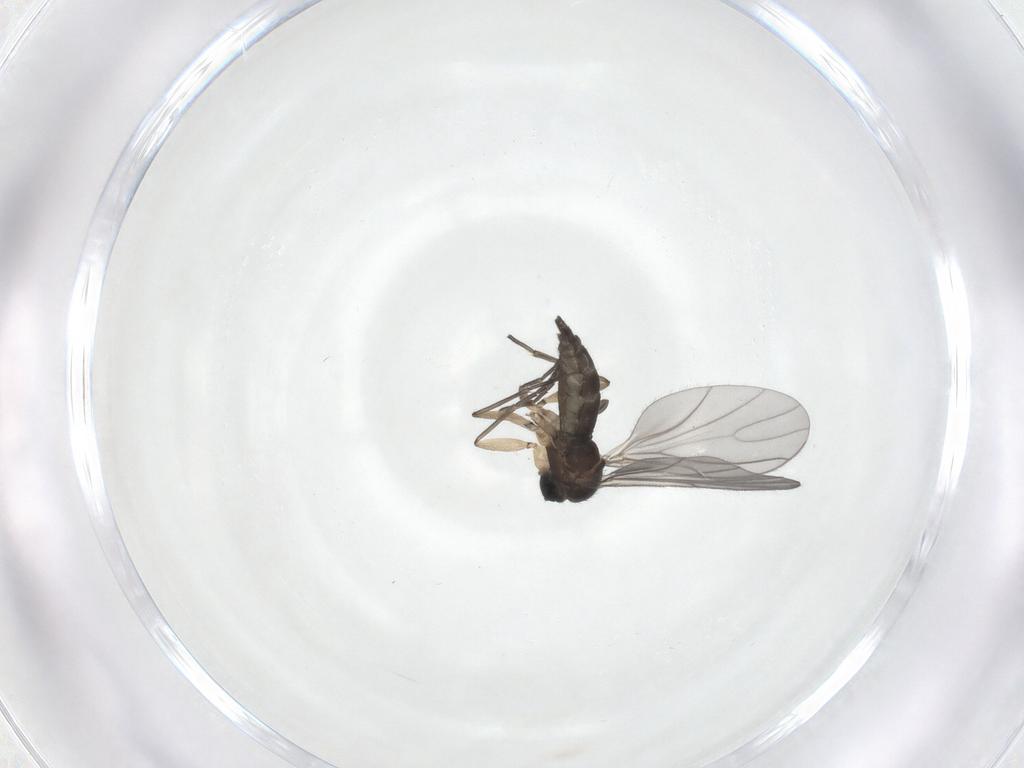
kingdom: Animalia
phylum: Arthropoda
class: Insecta
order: Diptera
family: Sciaridae
